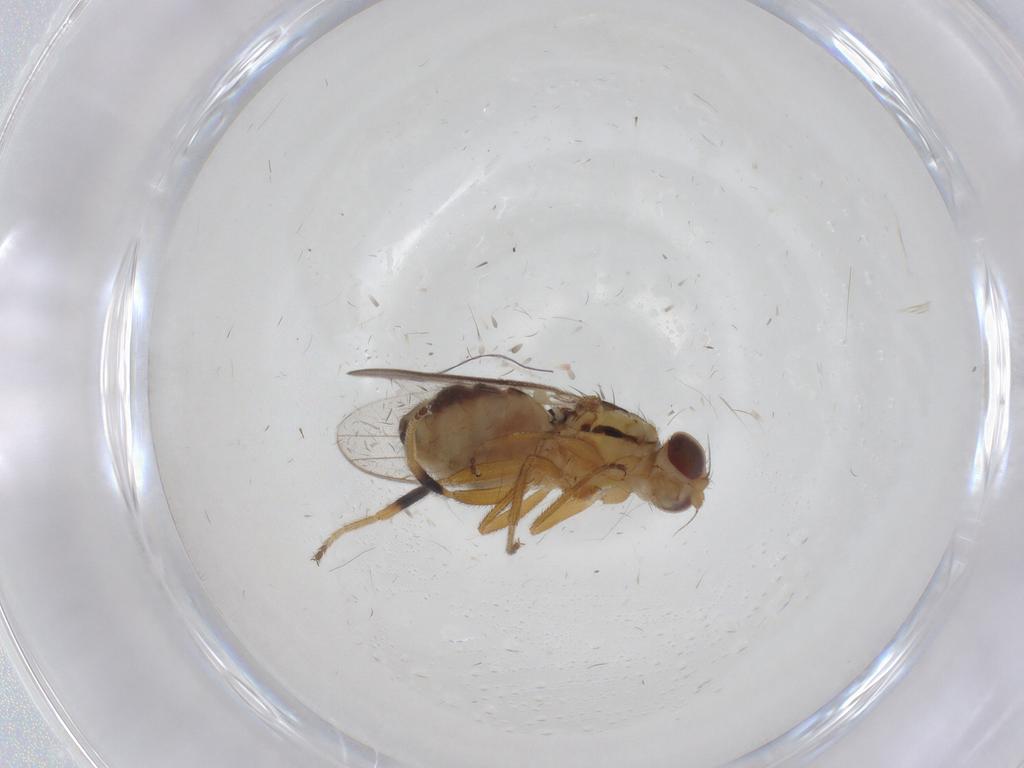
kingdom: Animalia
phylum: Arthropoda
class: Insecta
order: Diptera
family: Chloropidae
